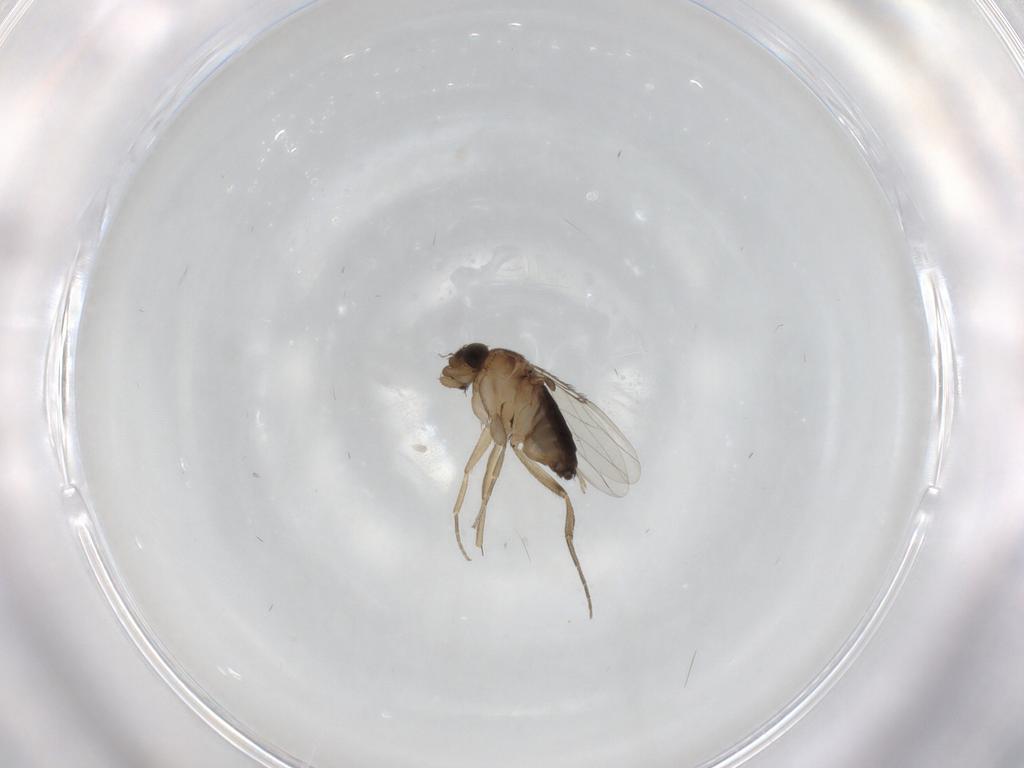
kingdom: Animalia
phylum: Arthropoda
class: Insecta
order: Diptera
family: Phoridae
